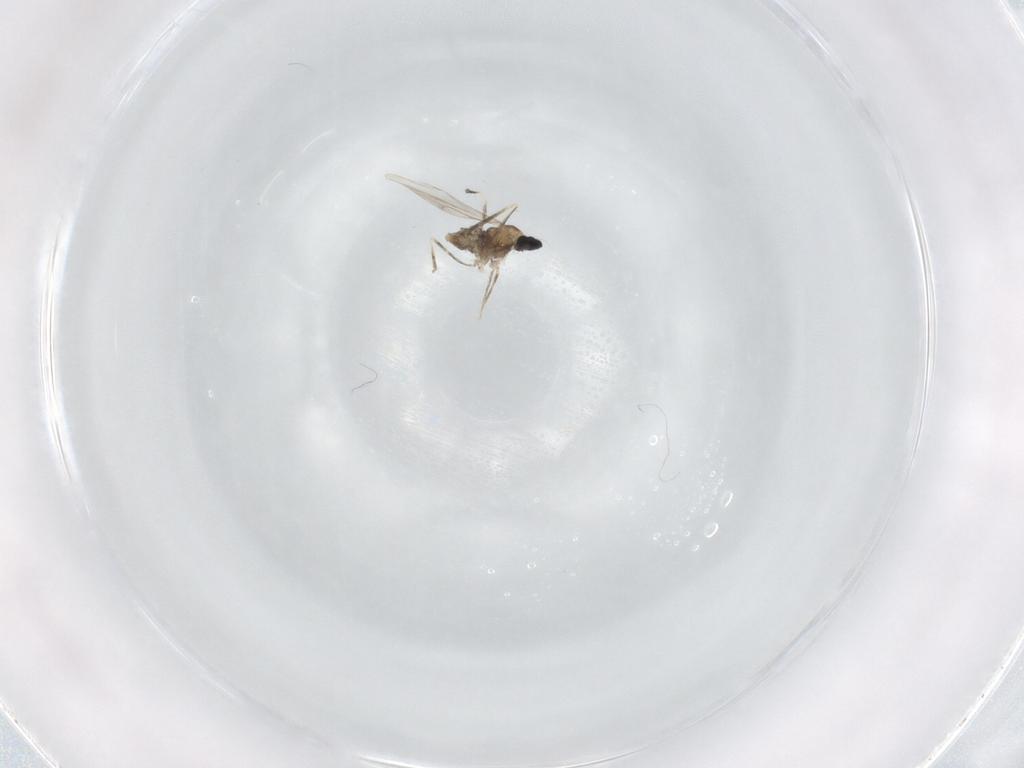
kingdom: Animalia
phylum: Arthropoda
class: Insecta
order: Diptera
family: Cecidomyiidae
